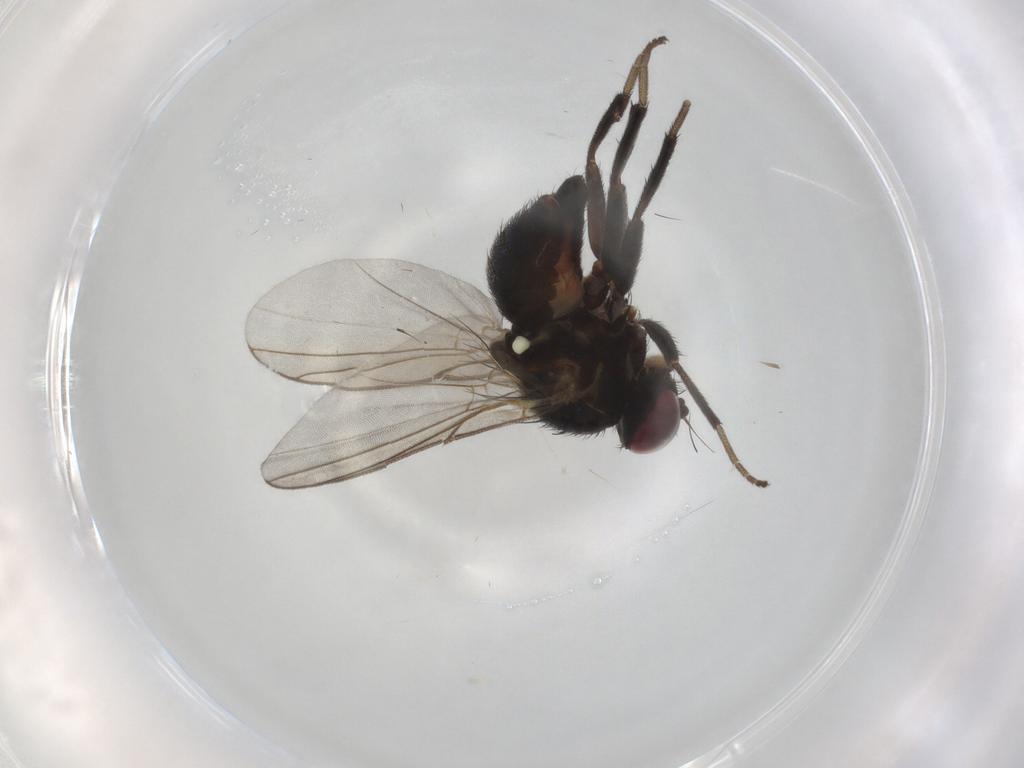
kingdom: Animalia
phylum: Arthropoda
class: Insecta
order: Diptera
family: Agromyzidae
